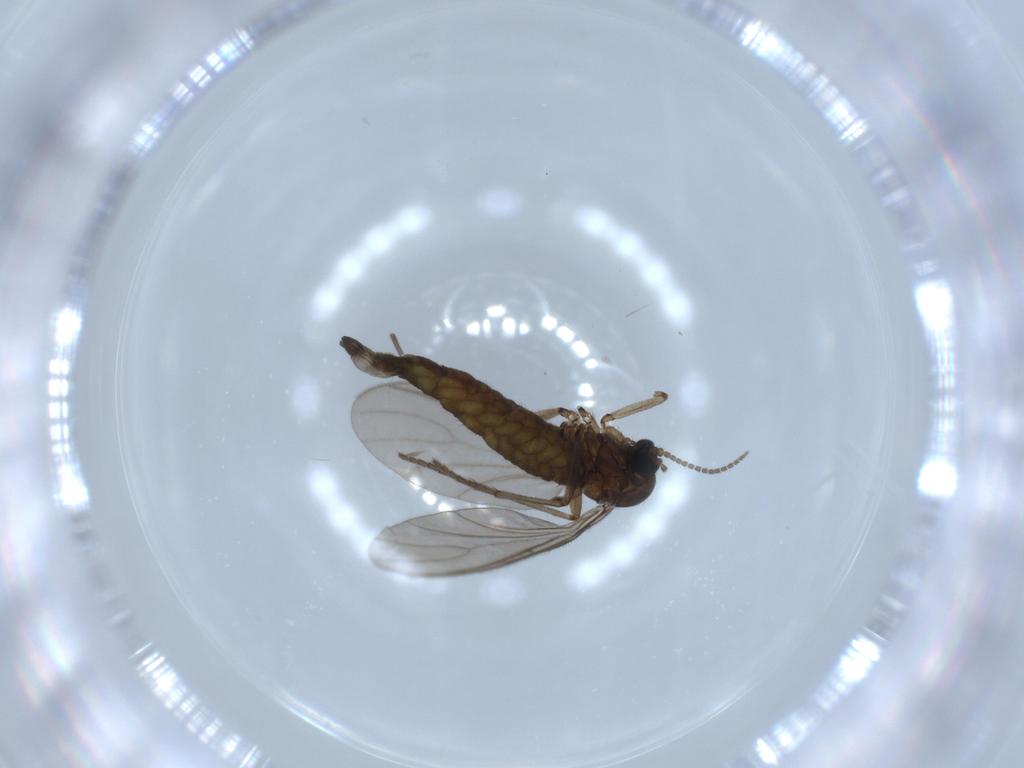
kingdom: Animalia
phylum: Arthropoda
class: Insecta
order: Diptera
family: Sciaridae
